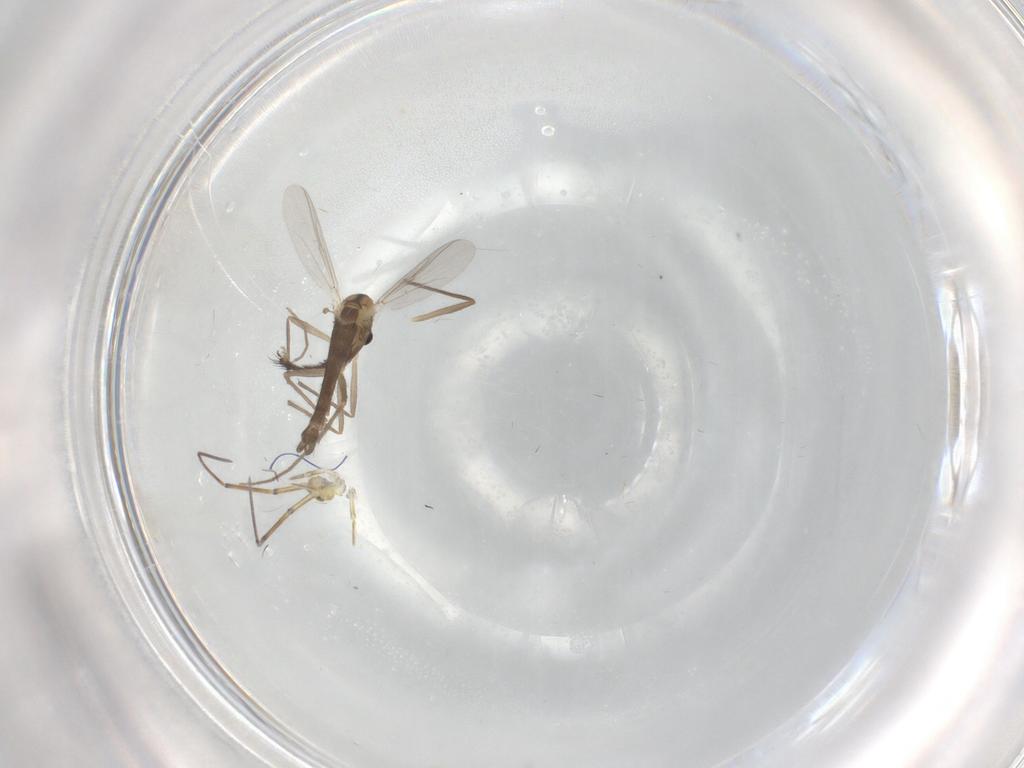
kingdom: Animalia
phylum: Arthropoda
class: Insecta
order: Diptera
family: Chironomidae
